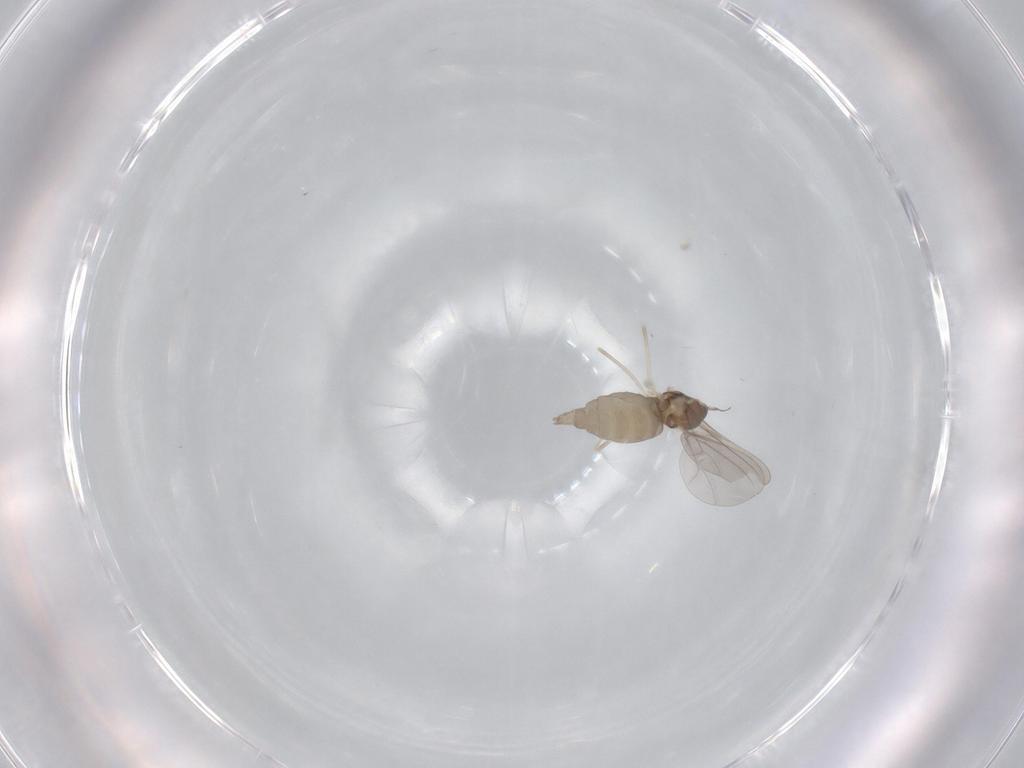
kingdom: Animalia
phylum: Arthropoda
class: Insecta
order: Diptera
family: Cecidomyiidae
